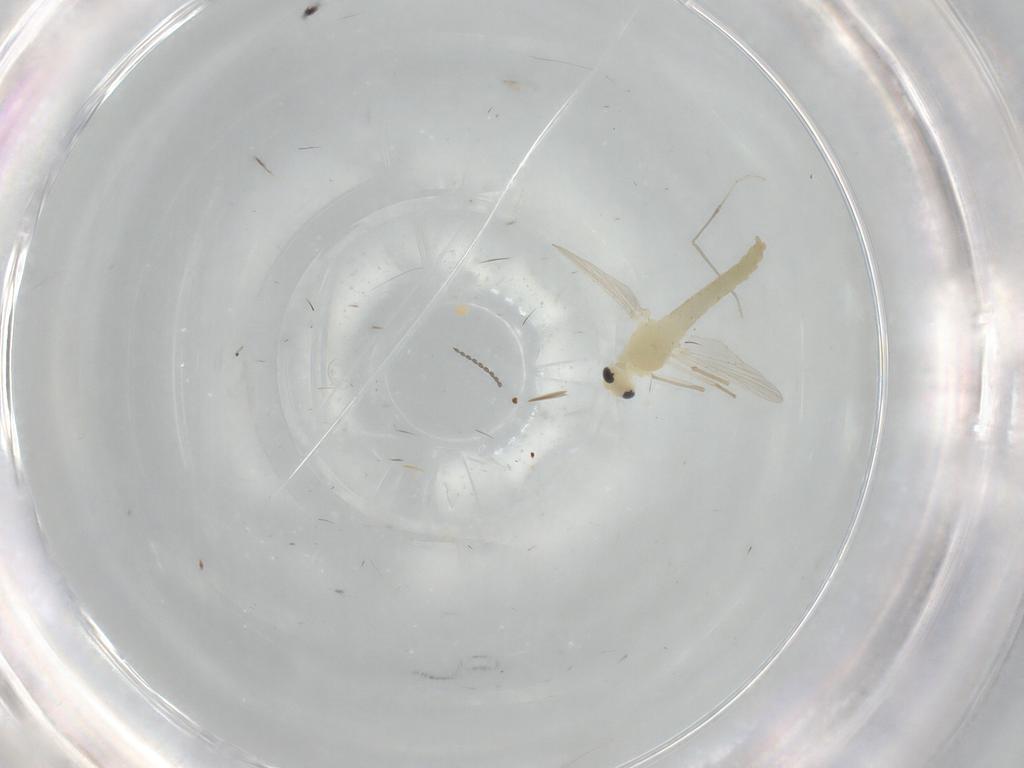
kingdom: Animalia
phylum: Arthropoda
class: Insecta
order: Diptera
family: Chironomidae
